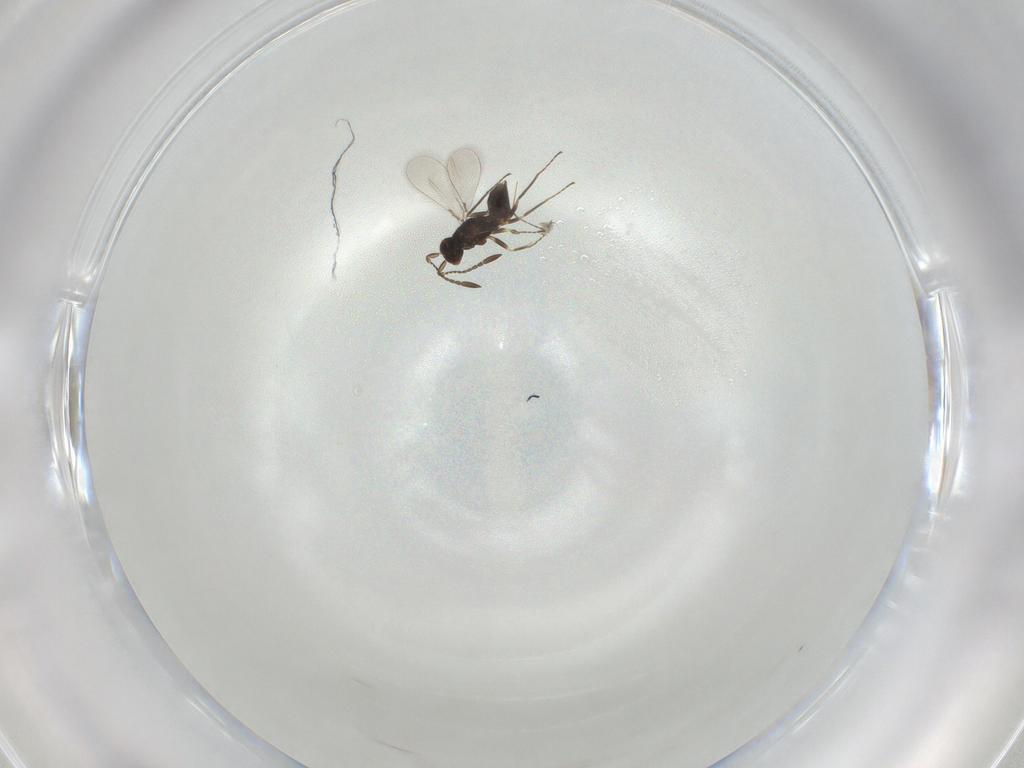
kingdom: Animalia
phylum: Arthropoda
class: Insecta
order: Hymenoptera
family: Mymaridae
